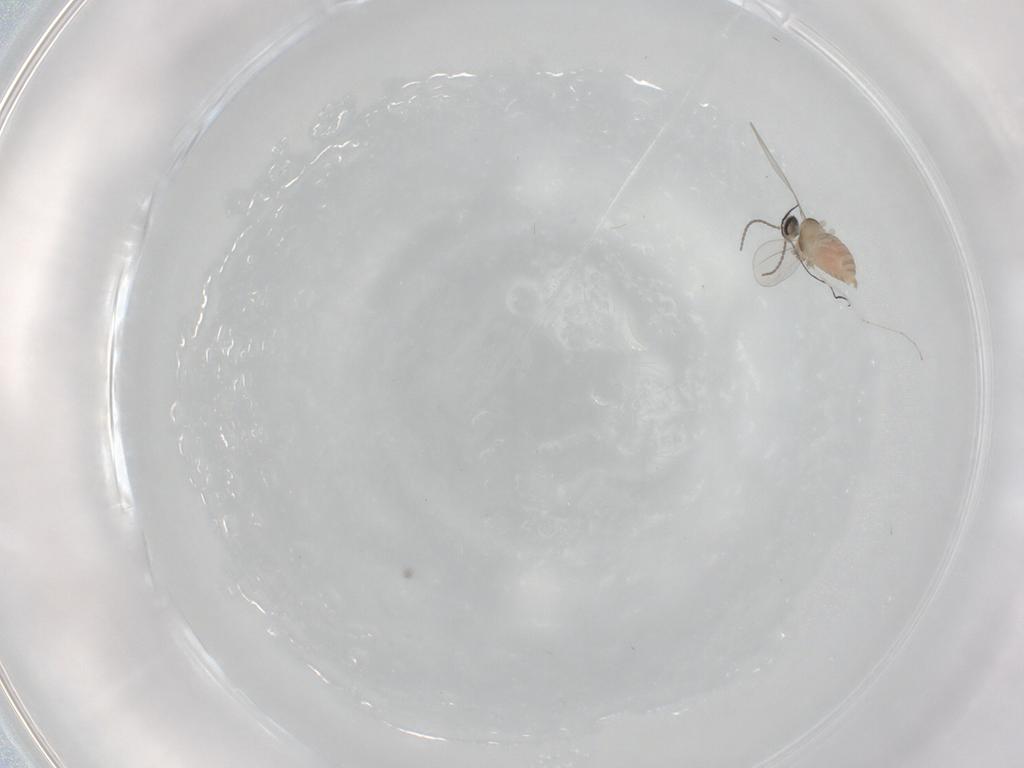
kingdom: Animalia
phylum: Arthropoda
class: Insecta
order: Diptera
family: Cecidomyiidae
